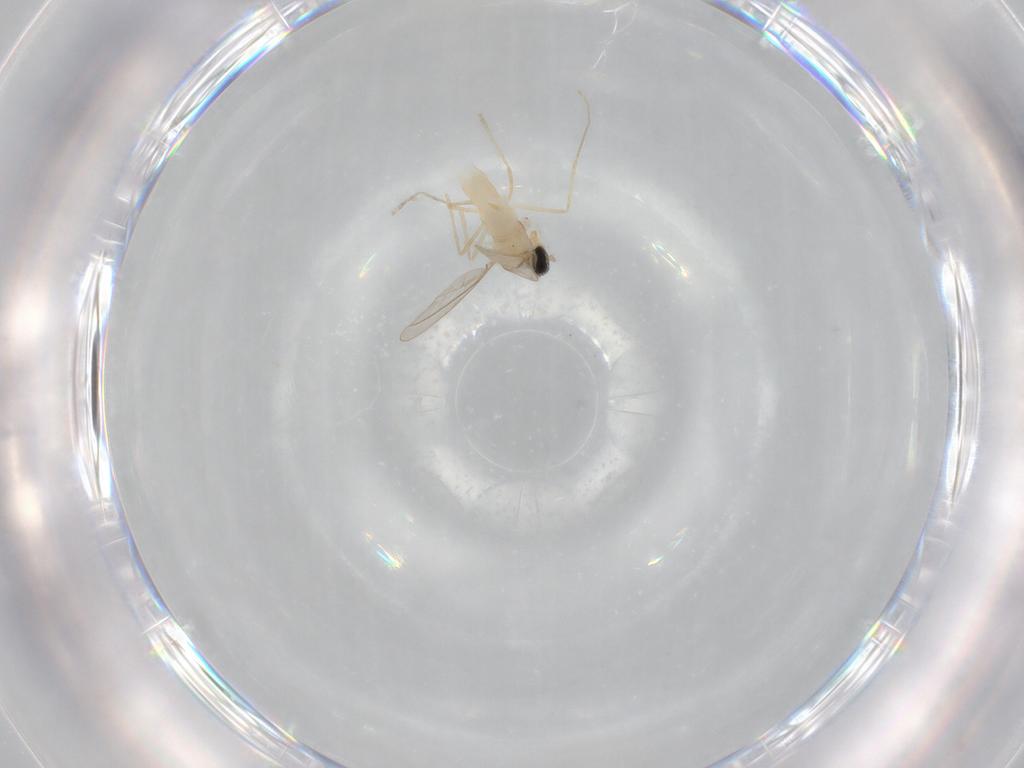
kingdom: Animalia
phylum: Arthropoda
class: Insecta
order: Diptera
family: Cecidomyiidae
